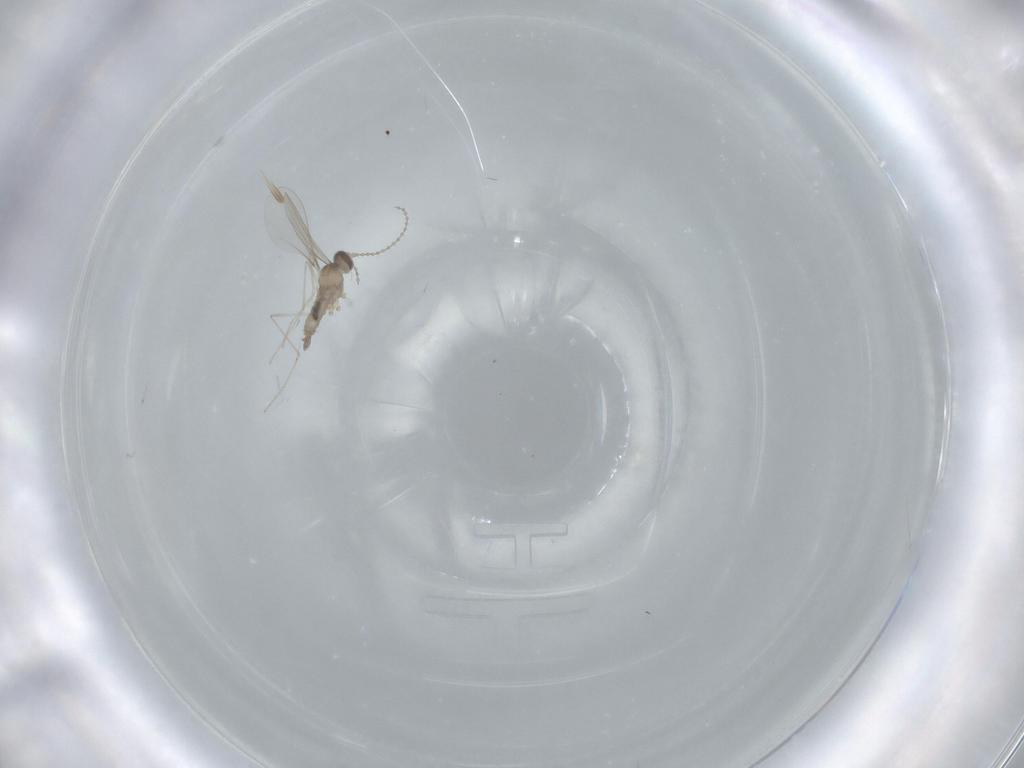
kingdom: Animalia
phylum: Arthropoda
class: Insecta
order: Diptera
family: Cecidomyiidae
